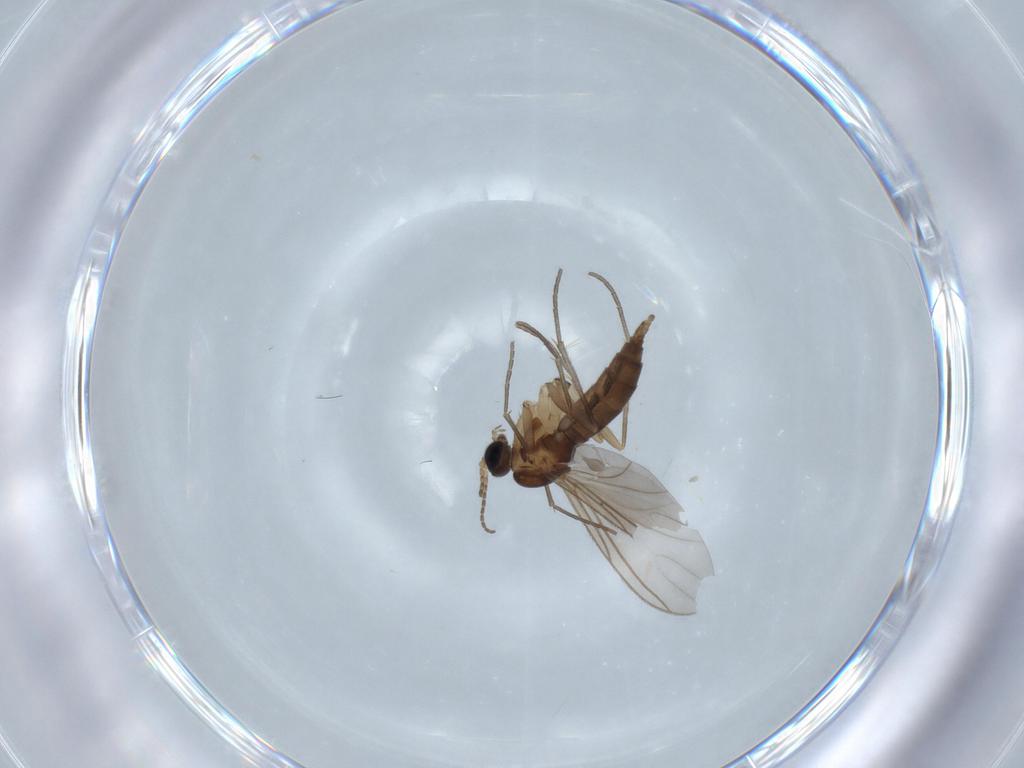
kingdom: Animalia
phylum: Arthropoda
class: Insecta
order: Diptera
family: Sciaridae
